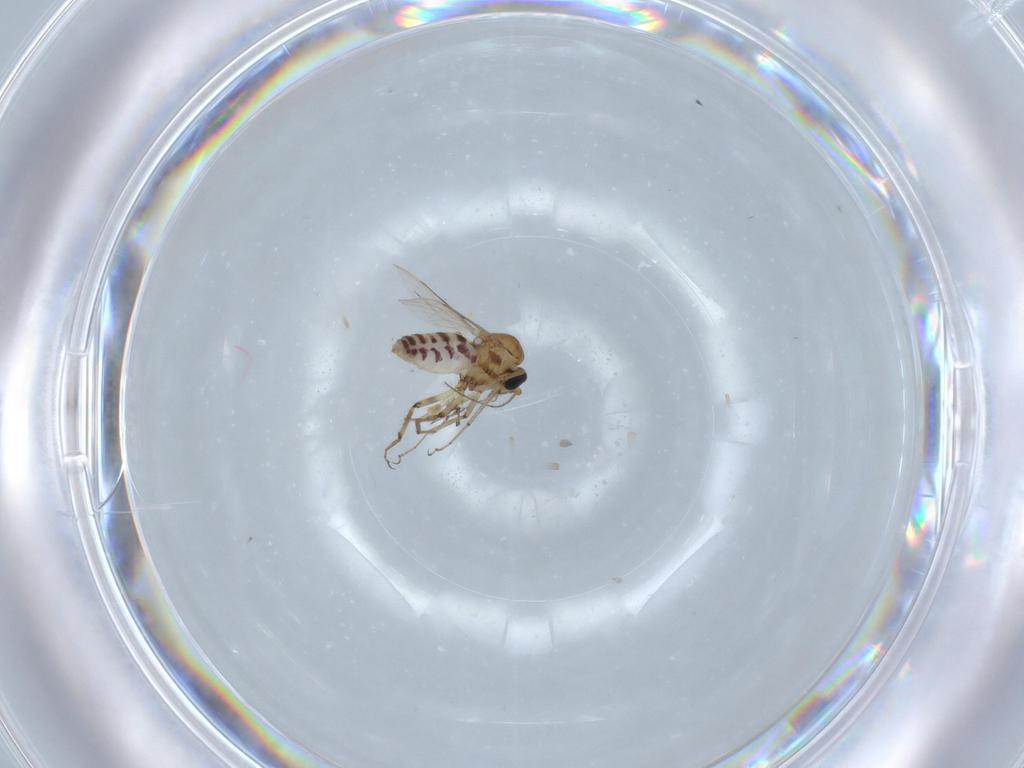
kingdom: Animalia
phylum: Arthropoda
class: Insecta
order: Diptera
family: Ceratopogonidae
